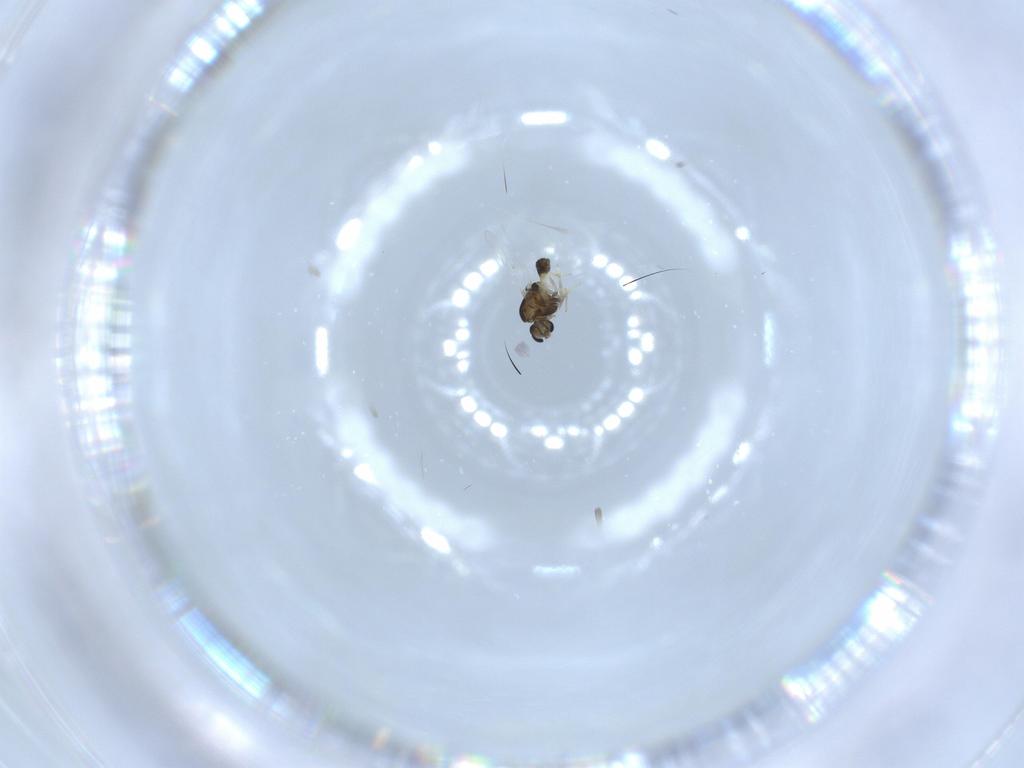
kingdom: Animalia
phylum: Arthropoda
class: Insecta
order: Diptera
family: Chironomidae
